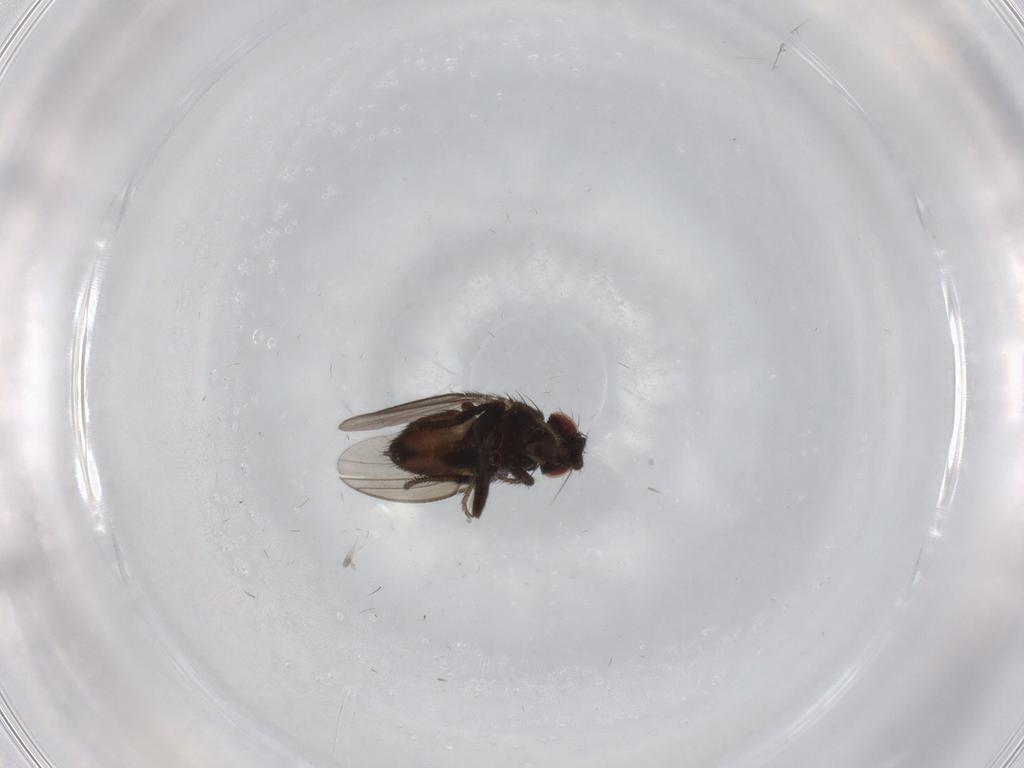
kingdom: Animalia
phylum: Arthropoda
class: Insecta
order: Diptera
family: Milichiidae
